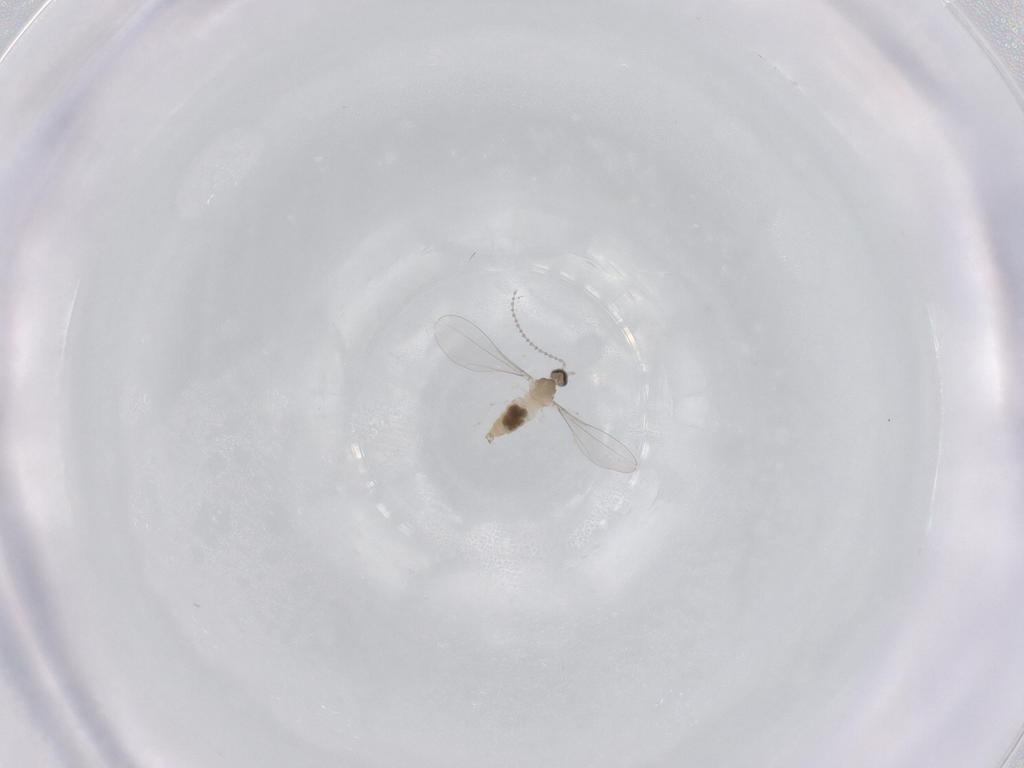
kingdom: Animalia
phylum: Arthropoda
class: Insecta
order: Diptera
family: Cecidomyiidae
